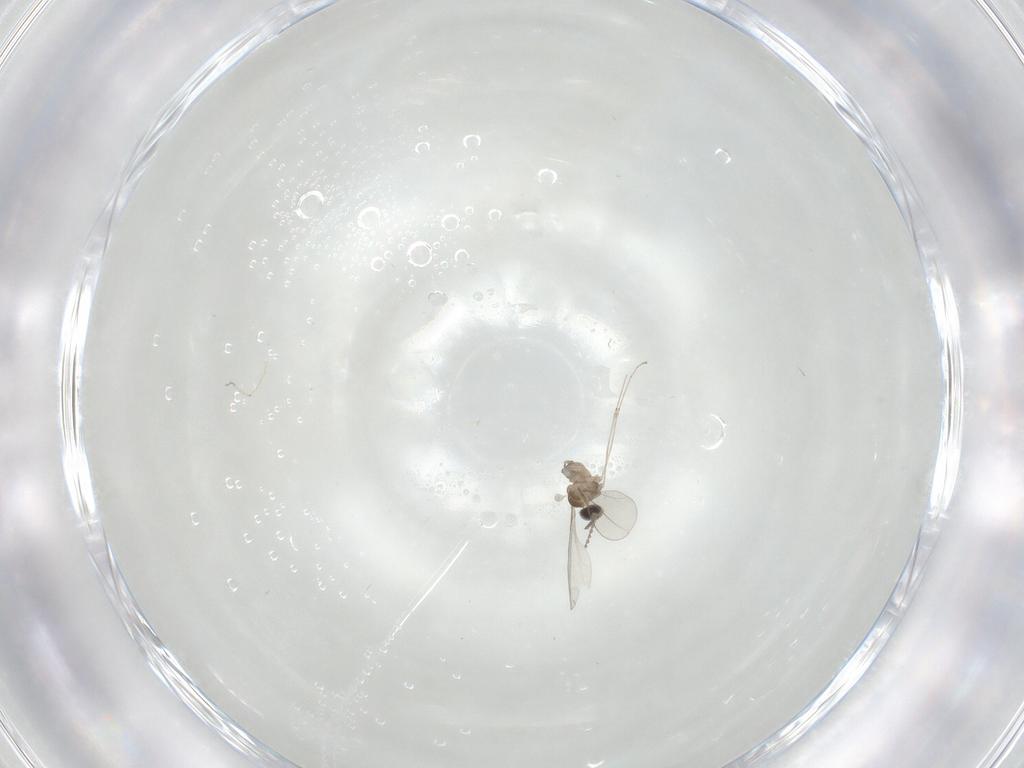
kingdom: Animalia
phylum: Arthropoda
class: Insecta
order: Diptera
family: Cecidomyiidae
